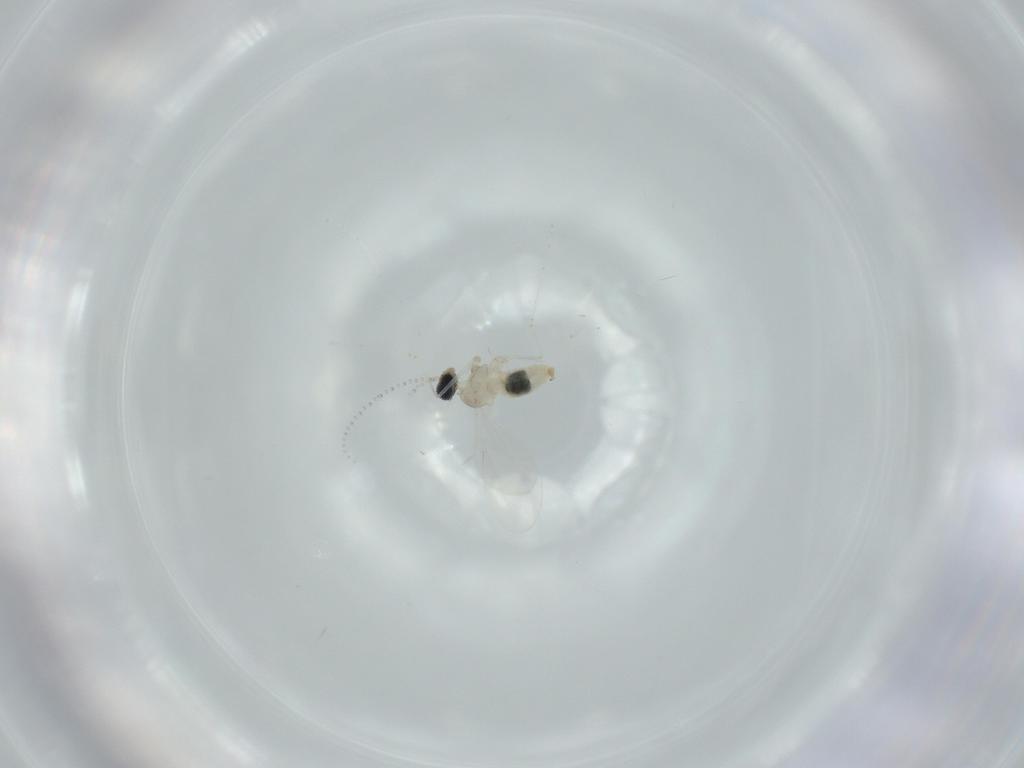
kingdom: Animalia
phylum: Arthropoda
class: Insecta
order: Diptera
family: Cecidomyiidae
